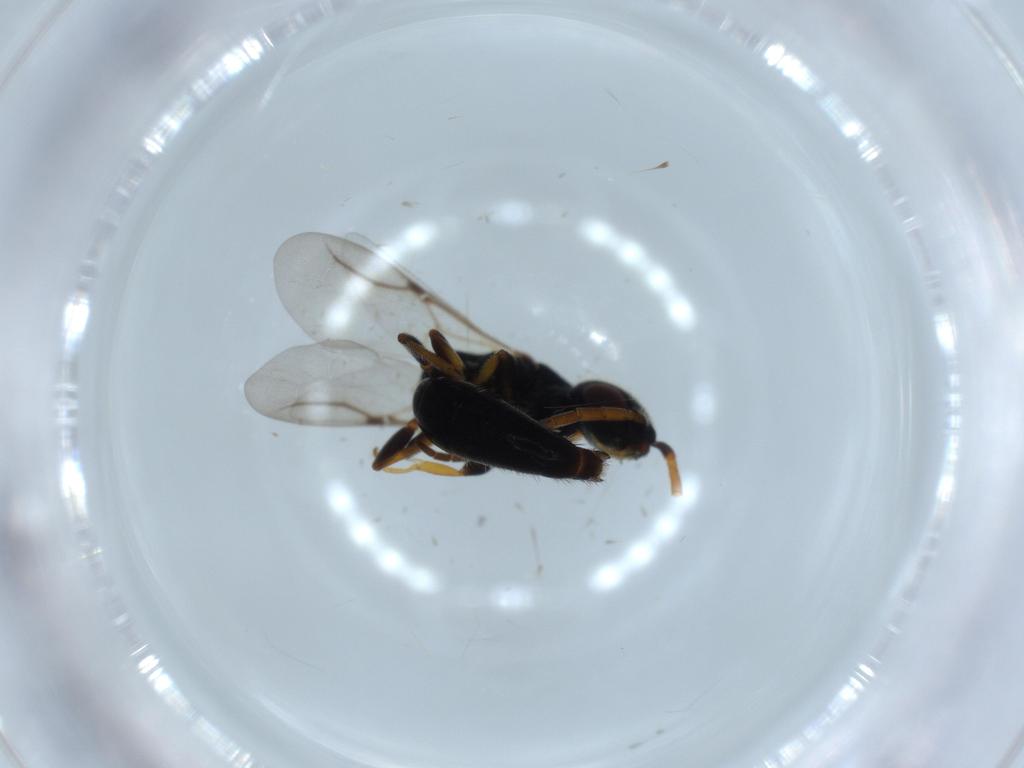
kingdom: Animalia
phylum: Arthropoda
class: Insecta
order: Hymenoptera
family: Bethylidae
